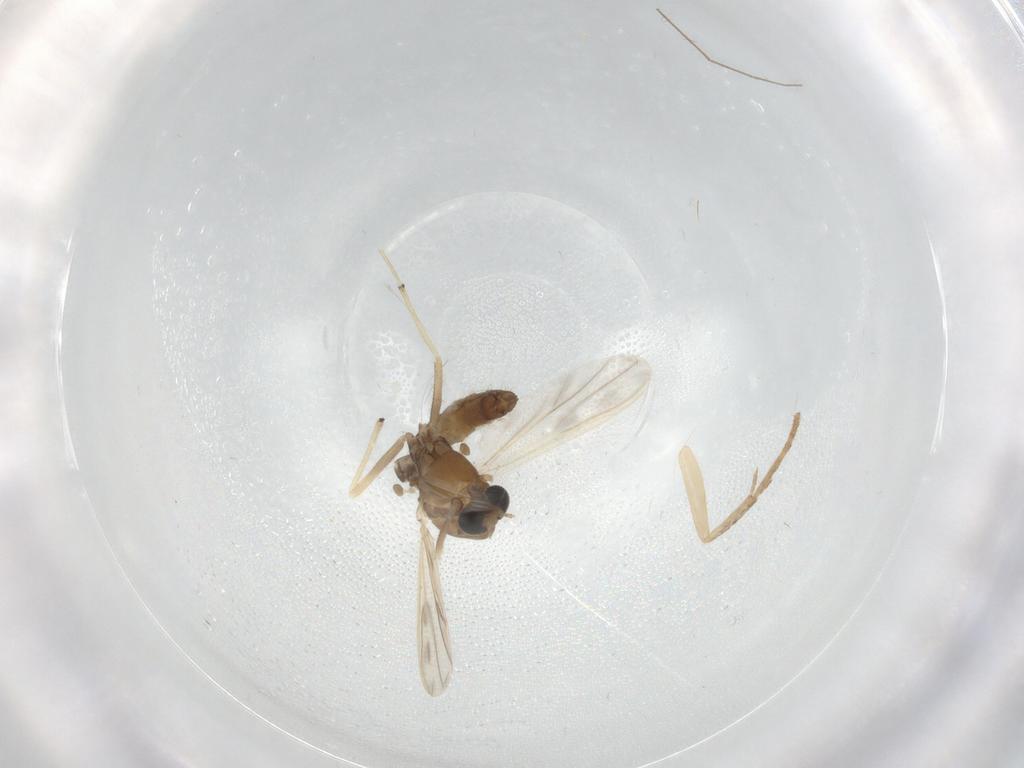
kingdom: Animalia
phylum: Arthropoda
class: Insecta
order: Diptera
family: Chironomidae
